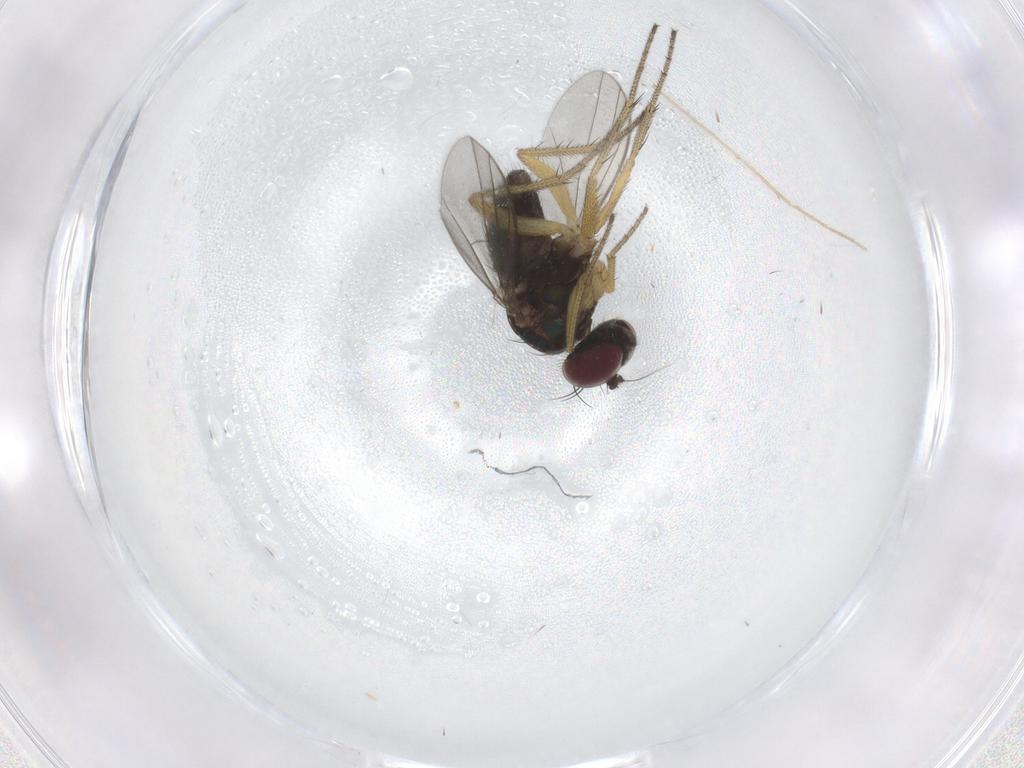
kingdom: Animalia
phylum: Arthropoda
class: Insecta
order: Diptera
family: Chironomidae
